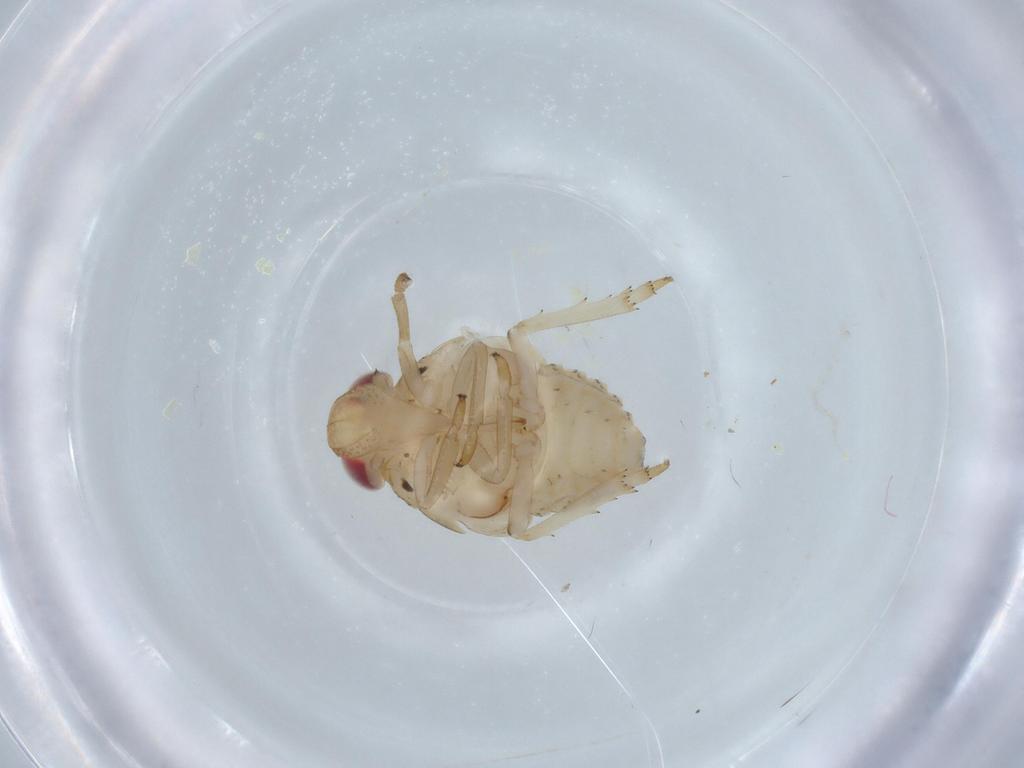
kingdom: Animalia
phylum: Arthropoda
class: Insecta
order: Hemiptera
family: Issidae
